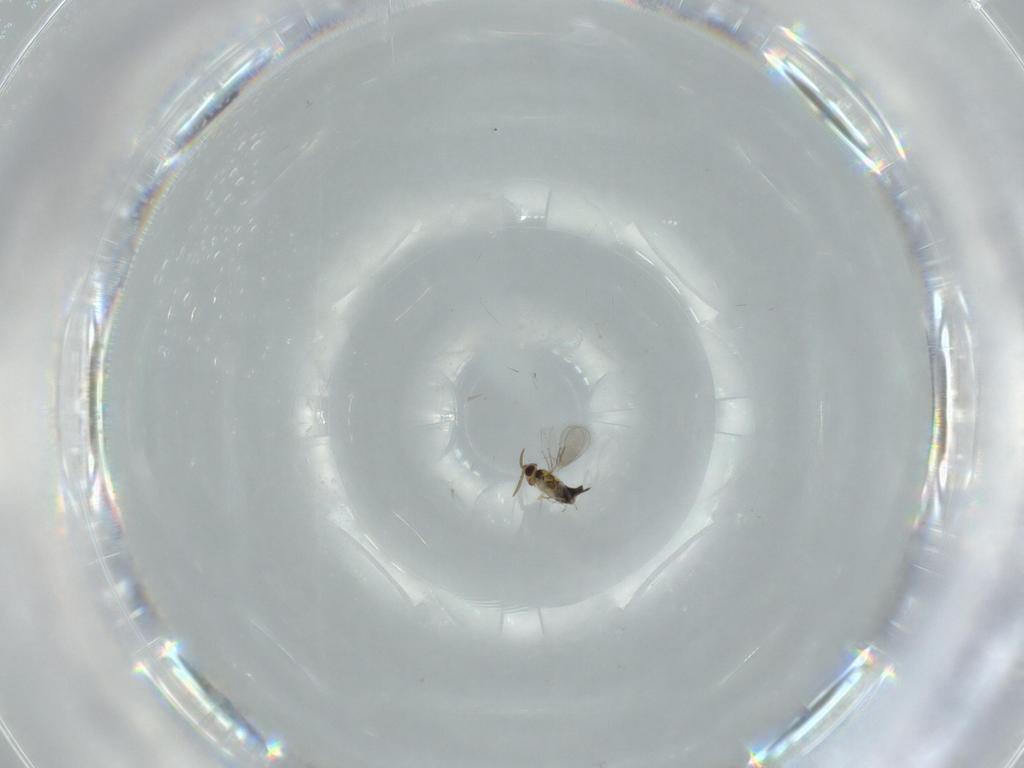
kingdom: Animalia
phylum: Arthropoda
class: Insecta
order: Hymenoptera
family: Aphelinidae
